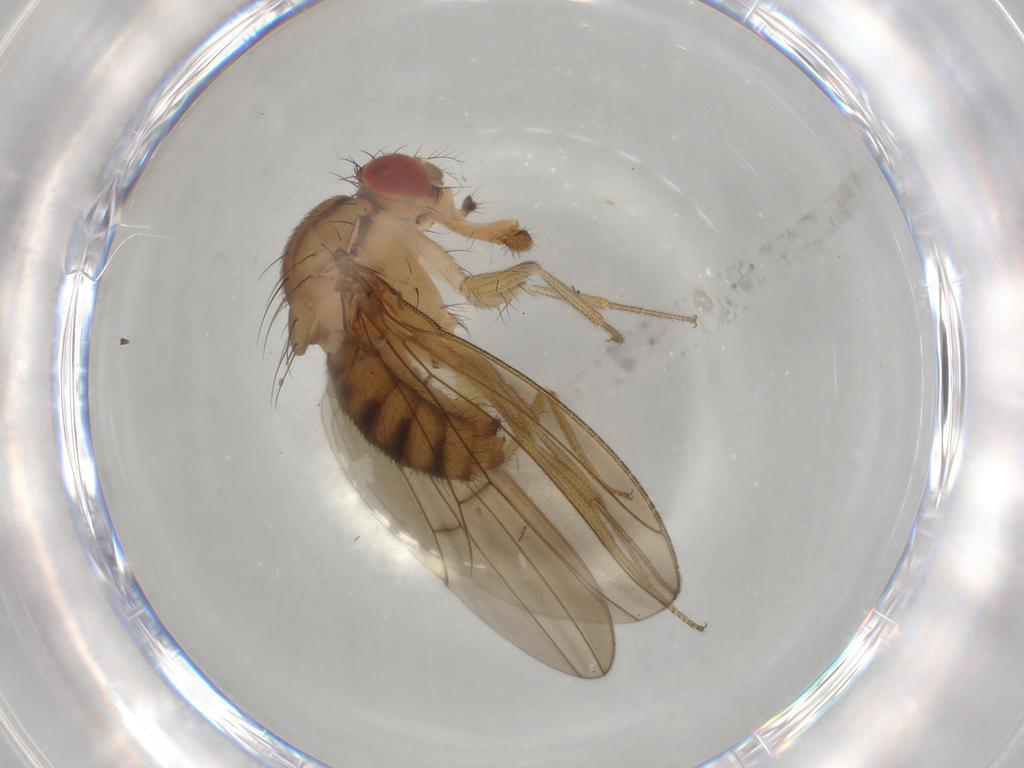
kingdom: Animalia
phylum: Arthropoda
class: Insecta
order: Diptera
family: Drosophilidae
